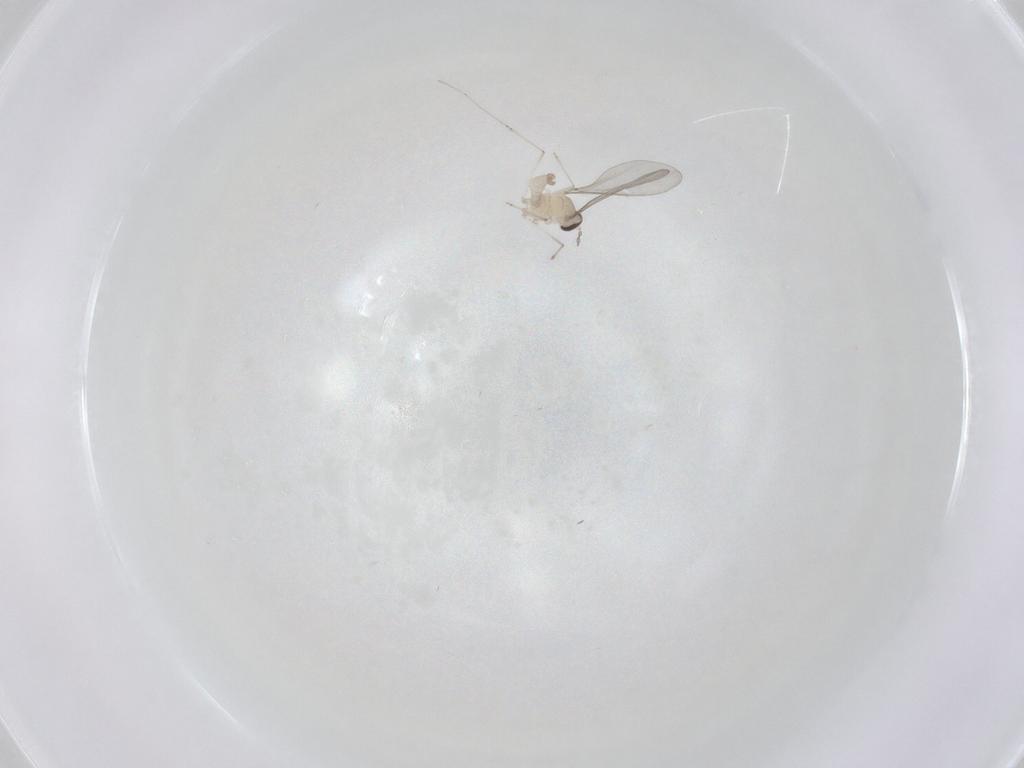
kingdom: Animalia
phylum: Arthropoda
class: Insecta
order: Diptera
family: Cecidomyiidae
